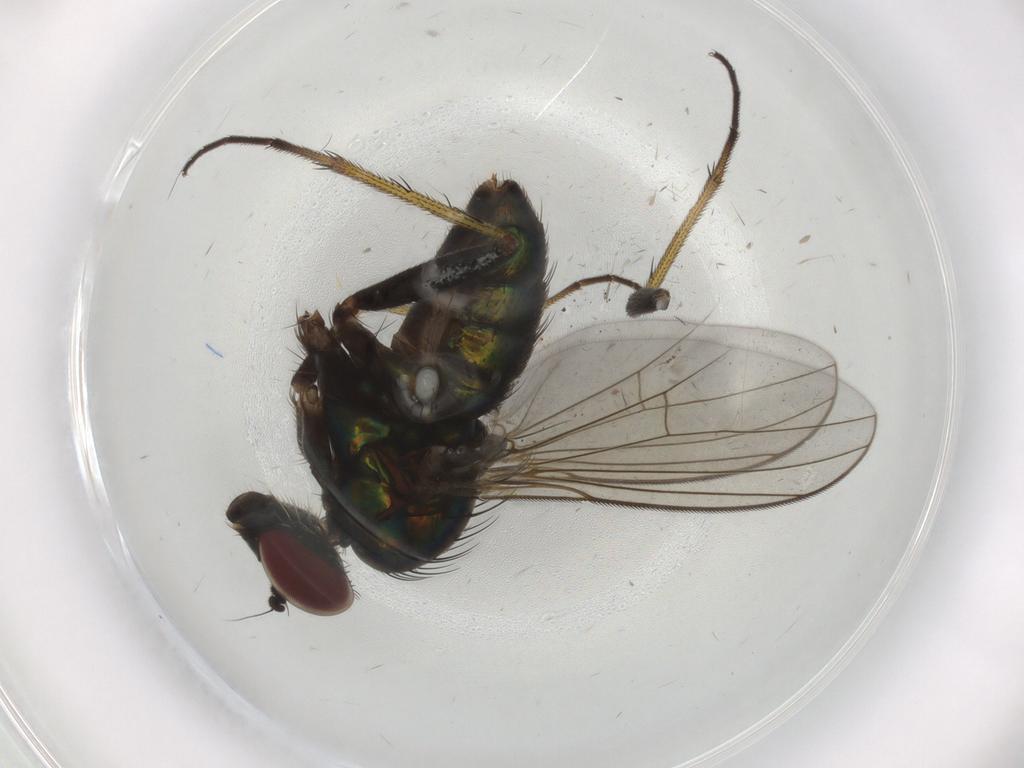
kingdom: Animalia
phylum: Arthropoda
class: Insecta
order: Diptera
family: Dolichopodidae
